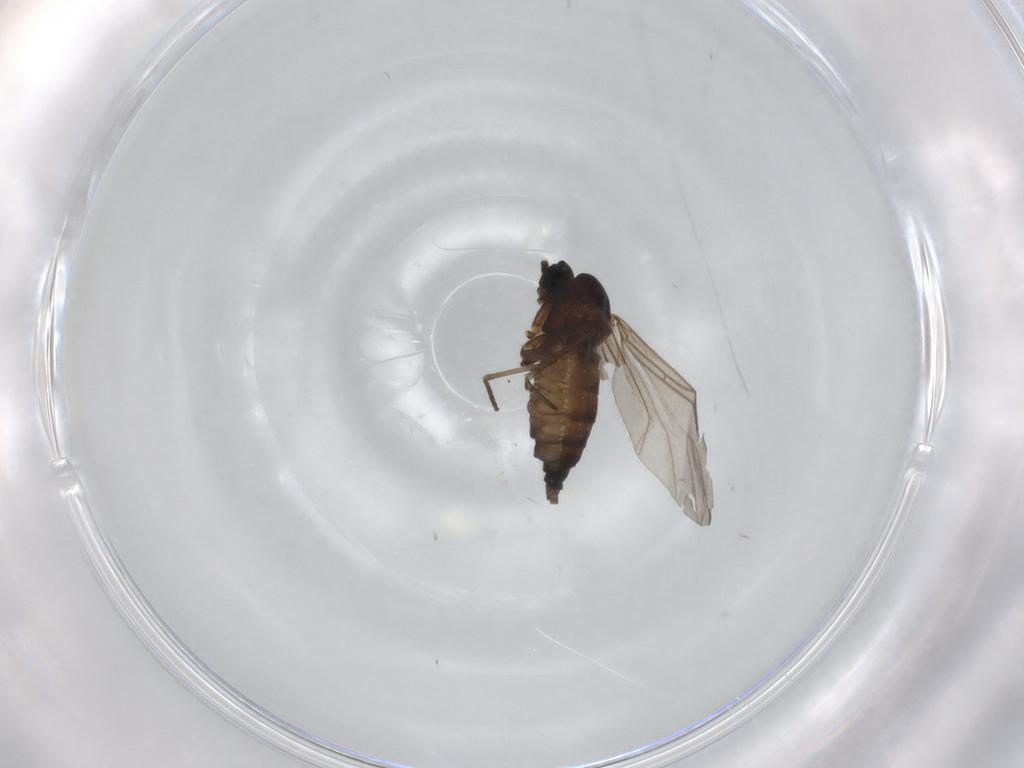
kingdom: Animalia
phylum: Arthropoda
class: Insecta
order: Diptera
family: Sciaridae
